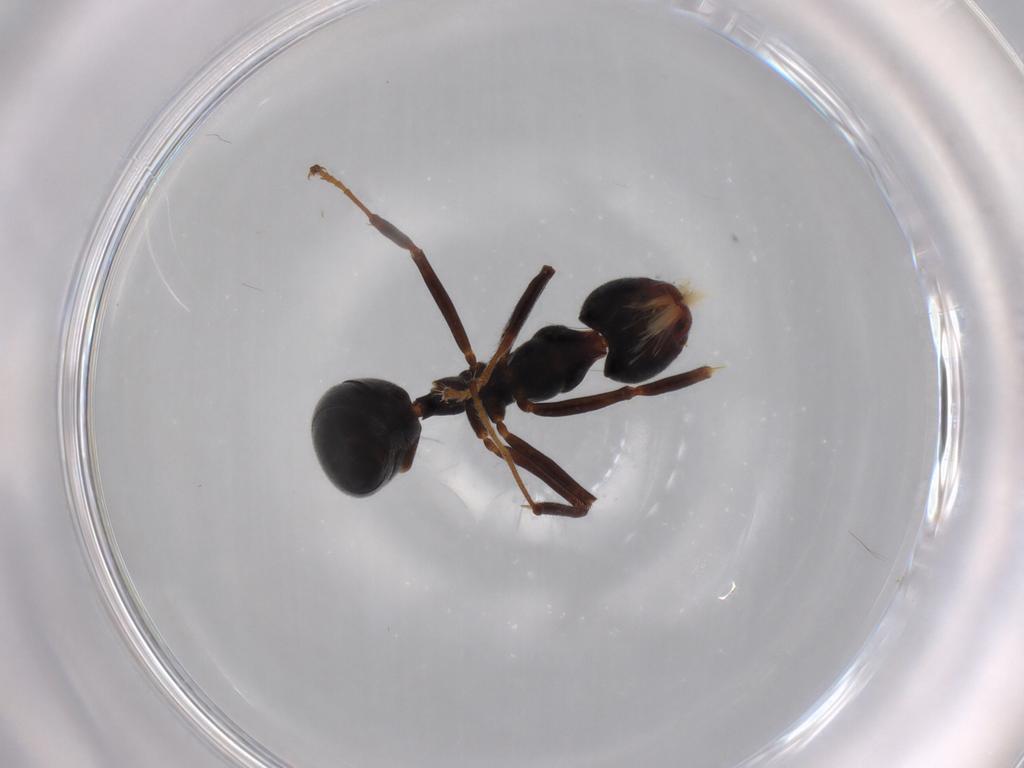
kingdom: Animalia
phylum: Arthropoda
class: Insecta
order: Hymenoptera
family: Formicidae
